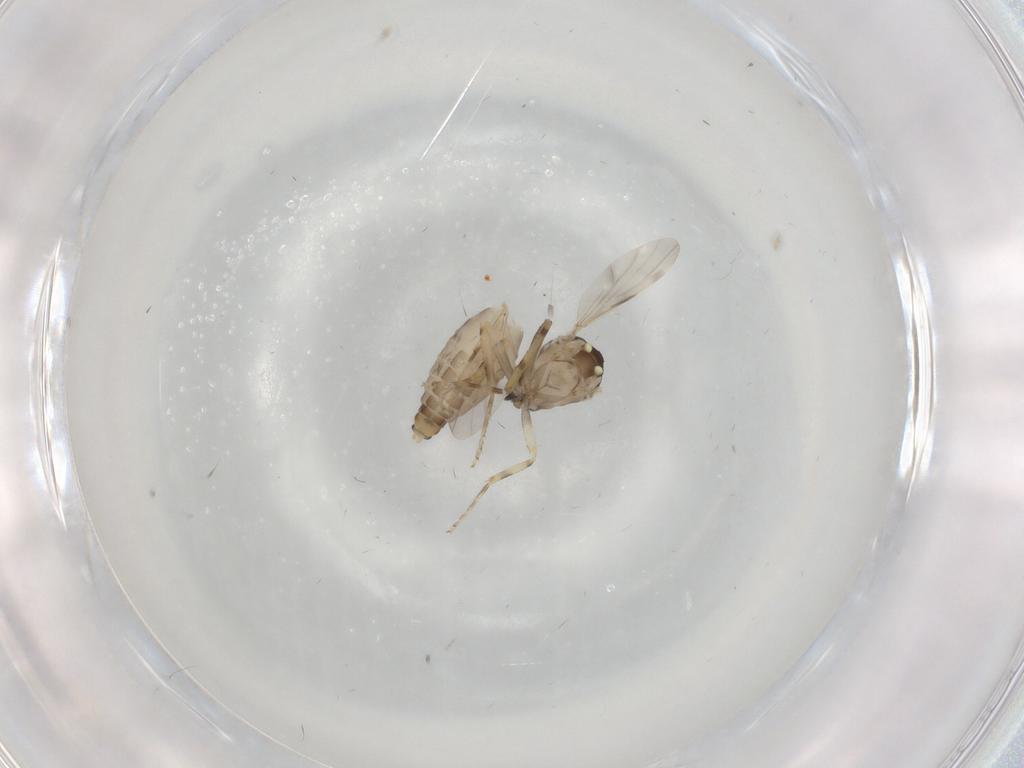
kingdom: Animalia
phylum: Arthropoda
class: Insecta
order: Diptera
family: Ceratopogonidae
